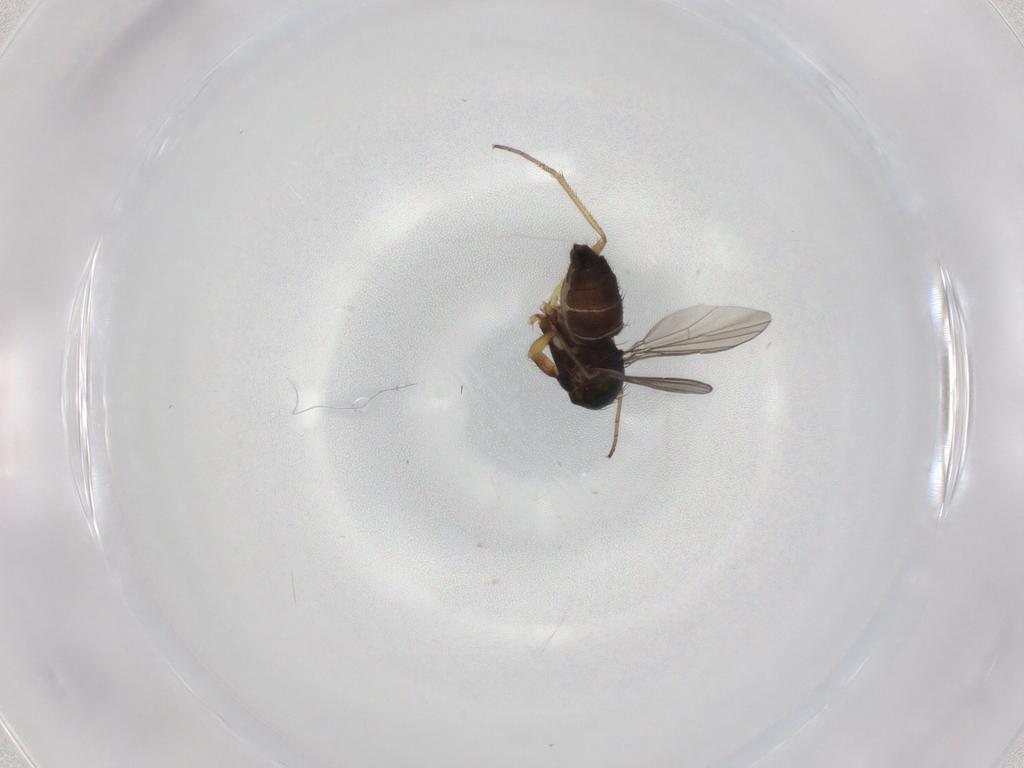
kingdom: Animalia
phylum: Arthropoda
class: Insecta
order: Diptera
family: Dolichopodidae
